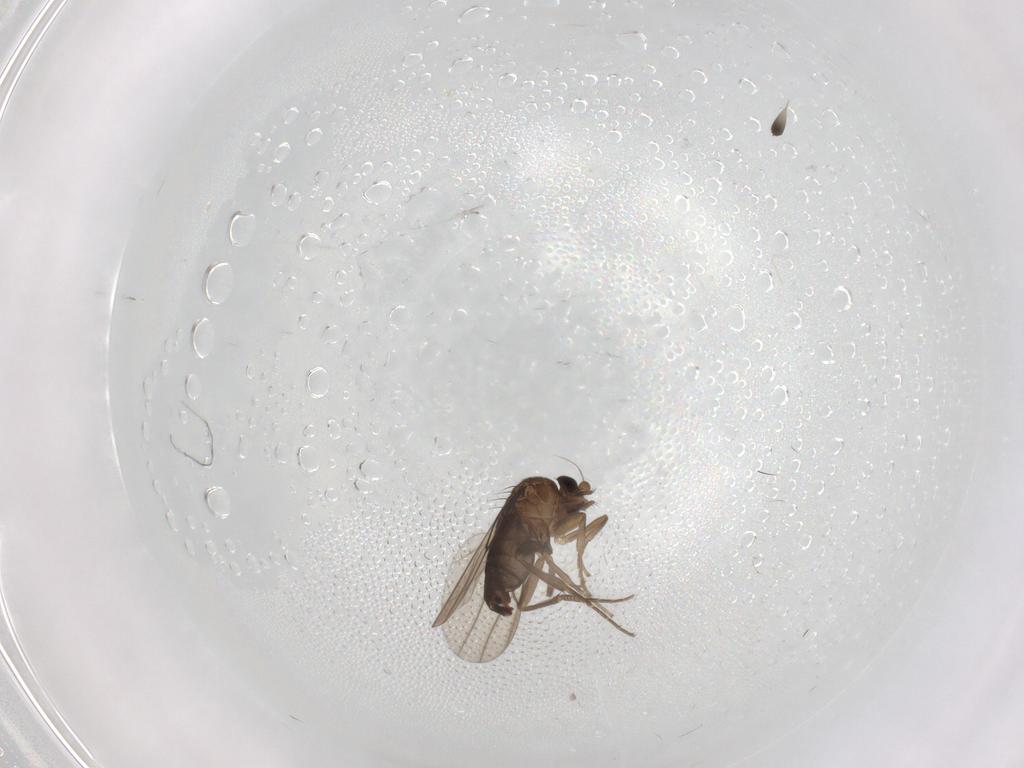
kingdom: Animalia
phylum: Arthropoda
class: Insecta
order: Diptera
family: Phoridae
